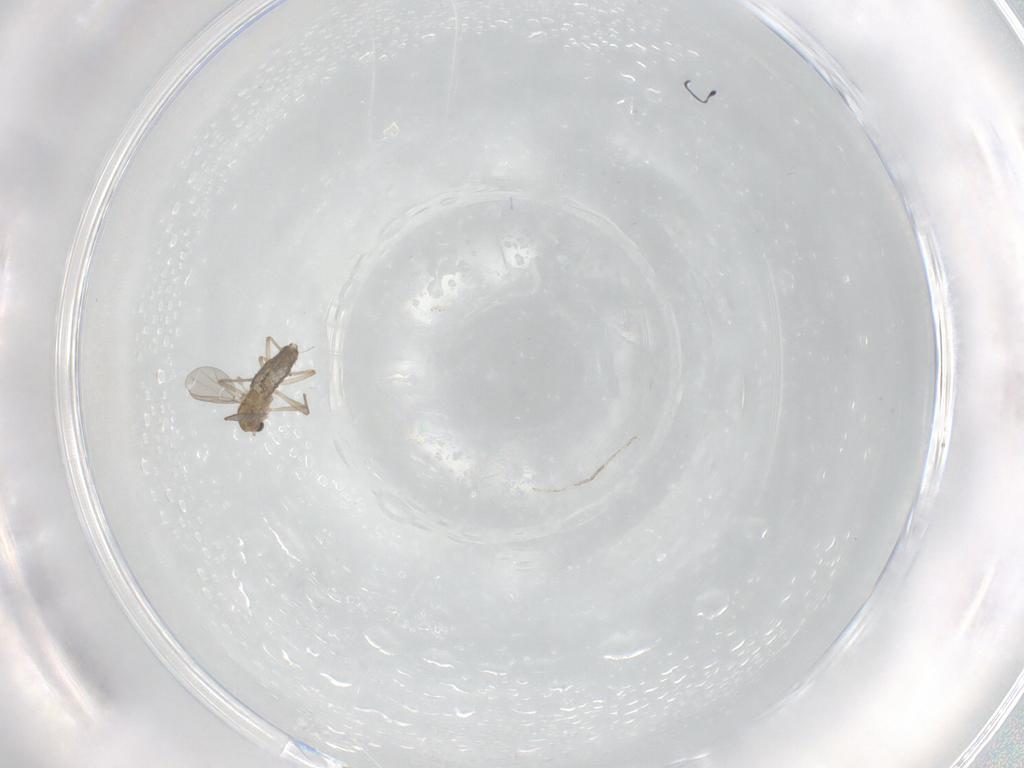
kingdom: Animalia
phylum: Arthropoda
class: Insecta
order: Diptera
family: Chironomidae
